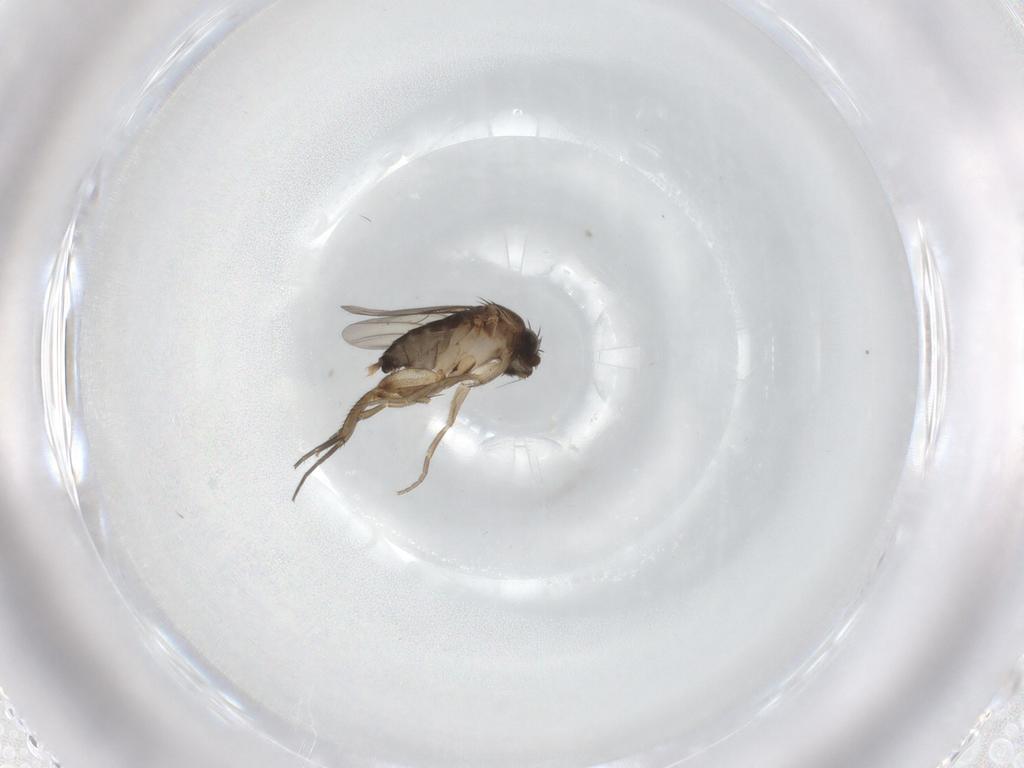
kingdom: Animalia
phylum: Arthropoda
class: Insecta
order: Diptera
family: Phoridae
